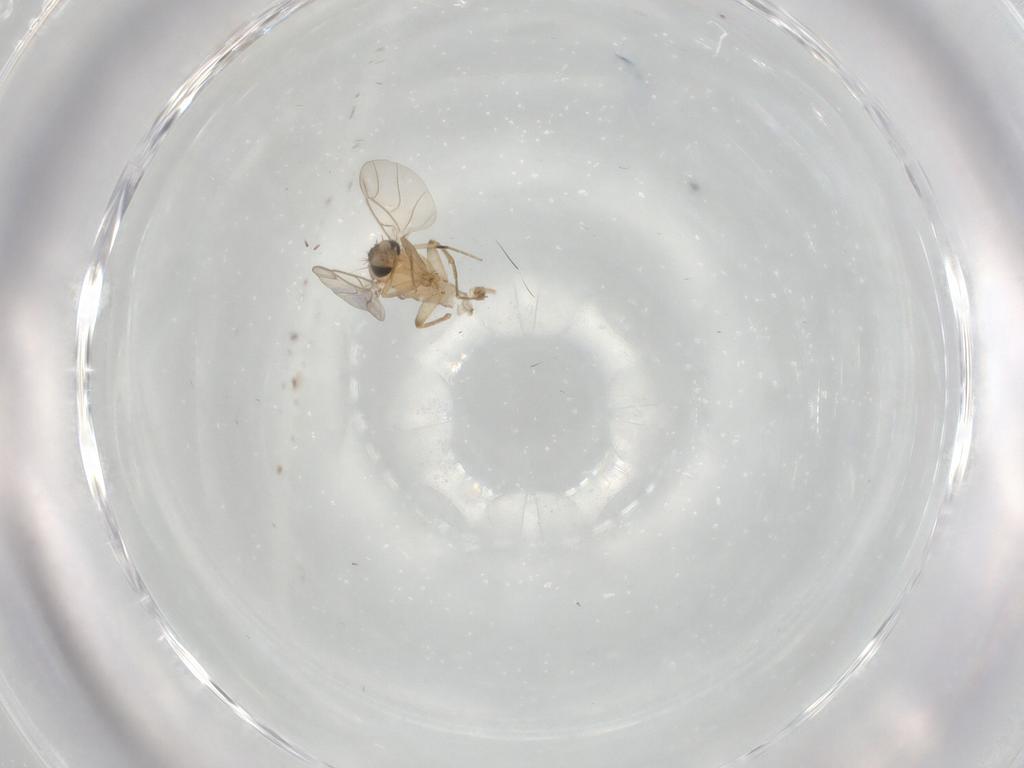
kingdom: Animalia
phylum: Arthropoda
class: Insecta
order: Diptera
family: Phoridae
